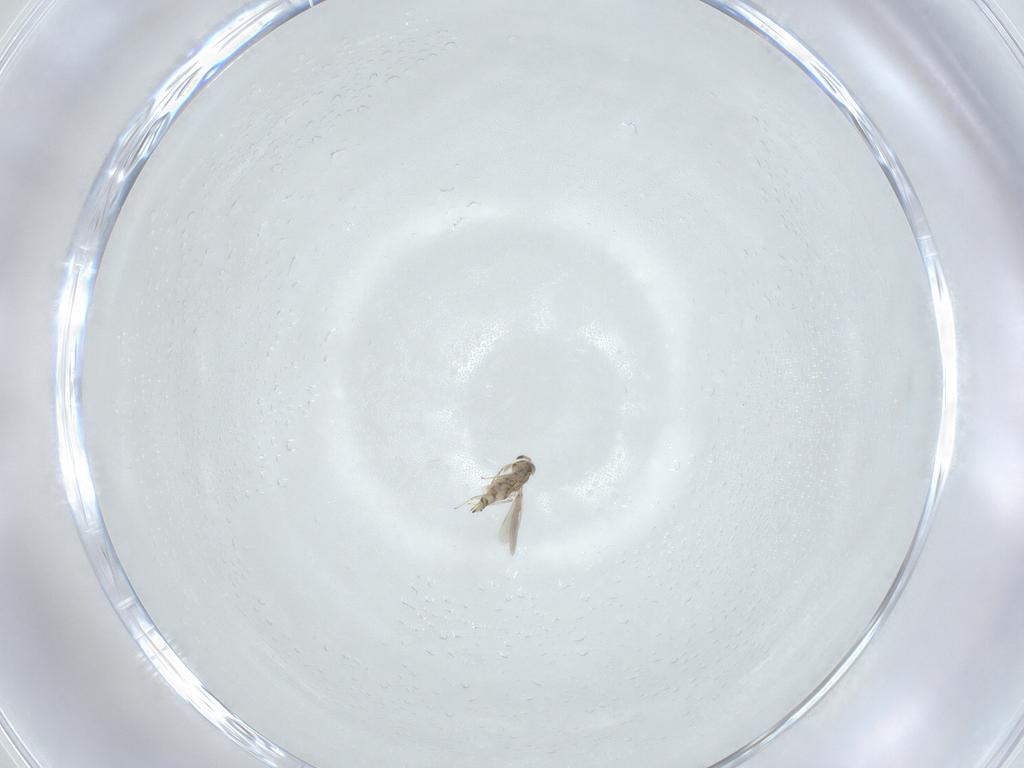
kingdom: Animalia
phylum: Arthropoda
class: Insecta
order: Hymenoptera
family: Aphelinidae
